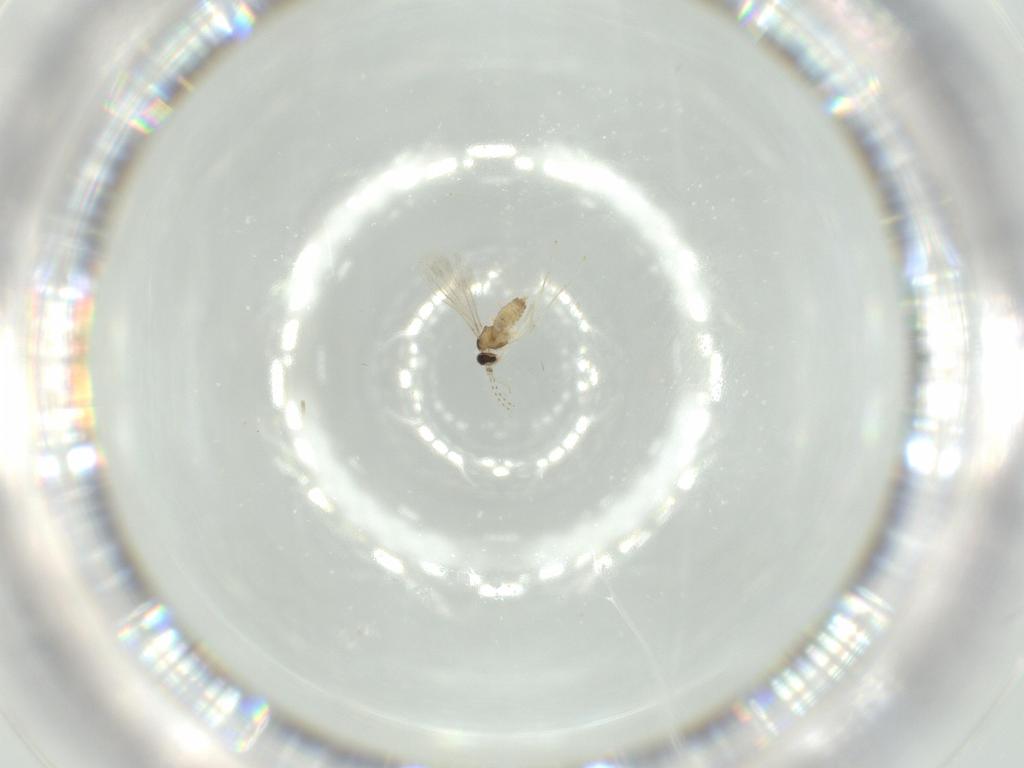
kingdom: Animalia
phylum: Arthropoda
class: Insecta
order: Diptera
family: Cecidomyiidae
